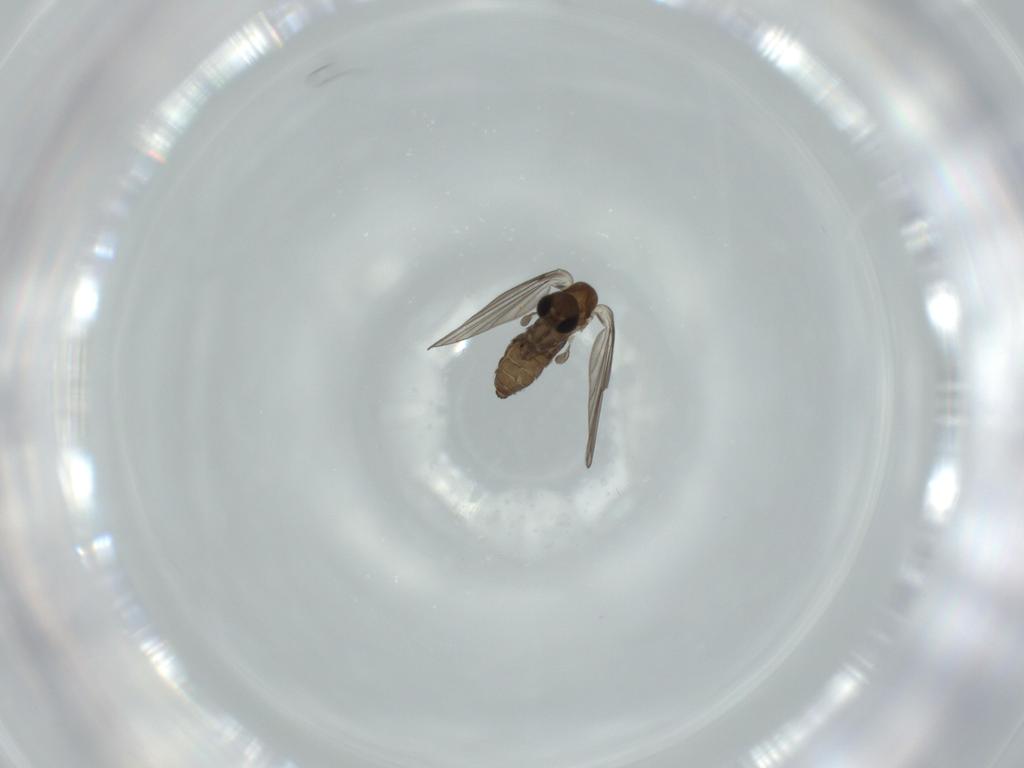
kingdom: Animalia
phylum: Arthropoda
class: Insecta
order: Diptera
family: Psychodidae
